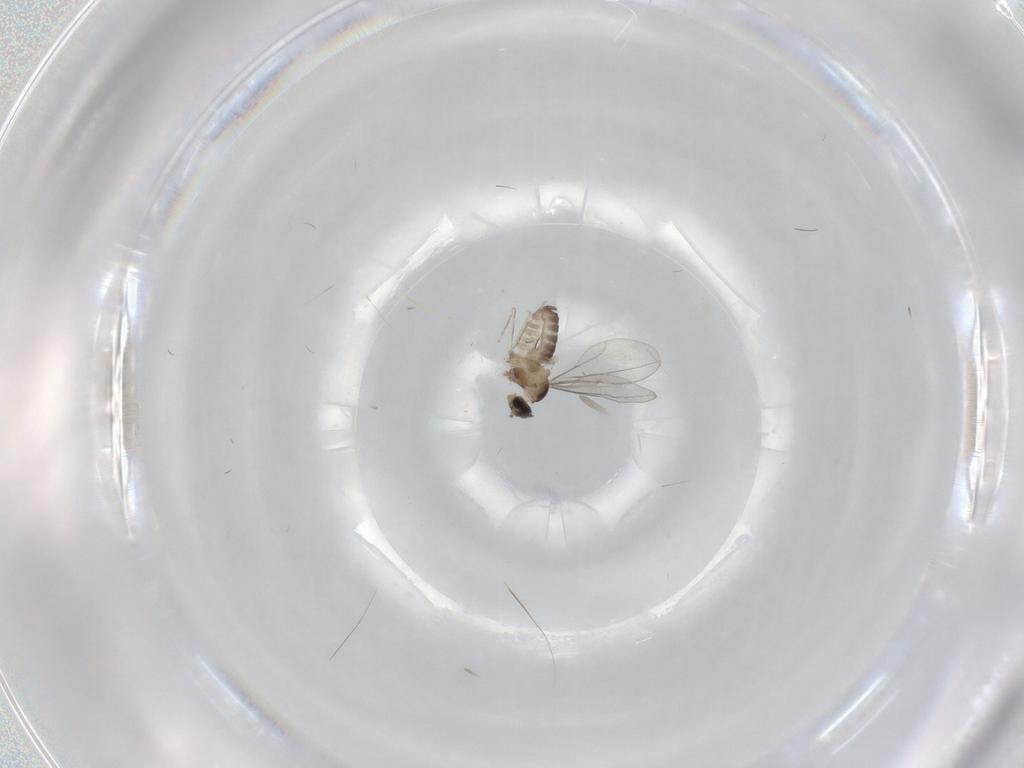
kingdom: Animalia
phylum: Arthropoda
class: Insecta
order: Diptera
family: Cecidomyiidae
